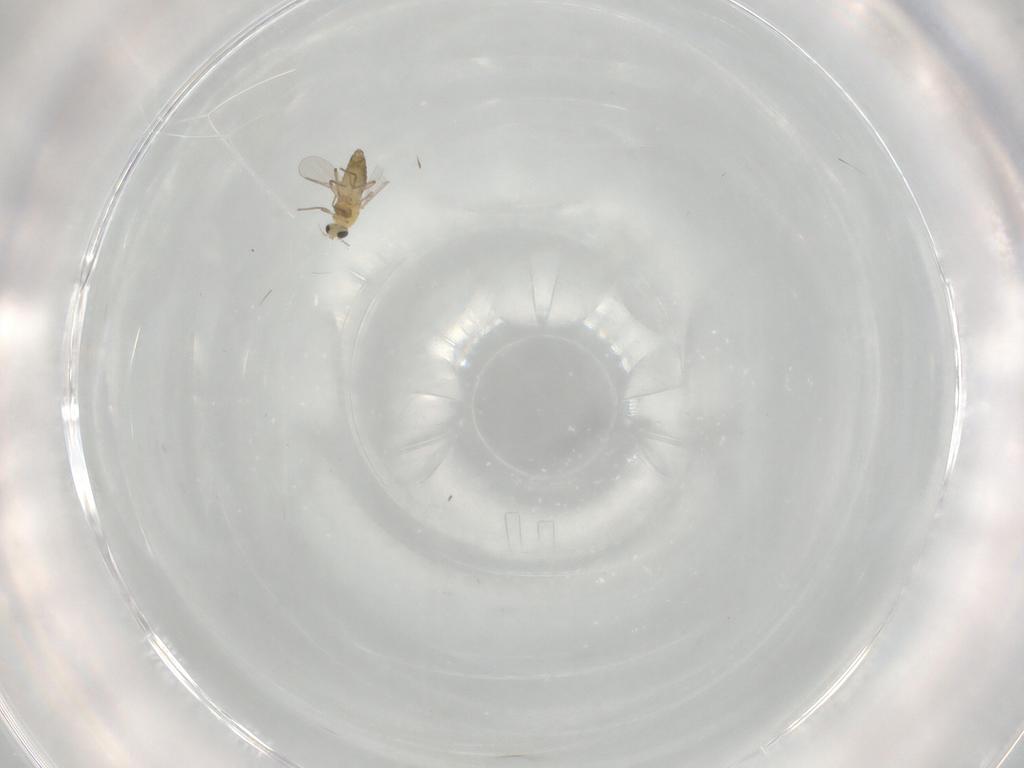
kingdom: Animalia
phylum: Arthropoda
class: Insecta
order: Diptera
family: Chironomidae
